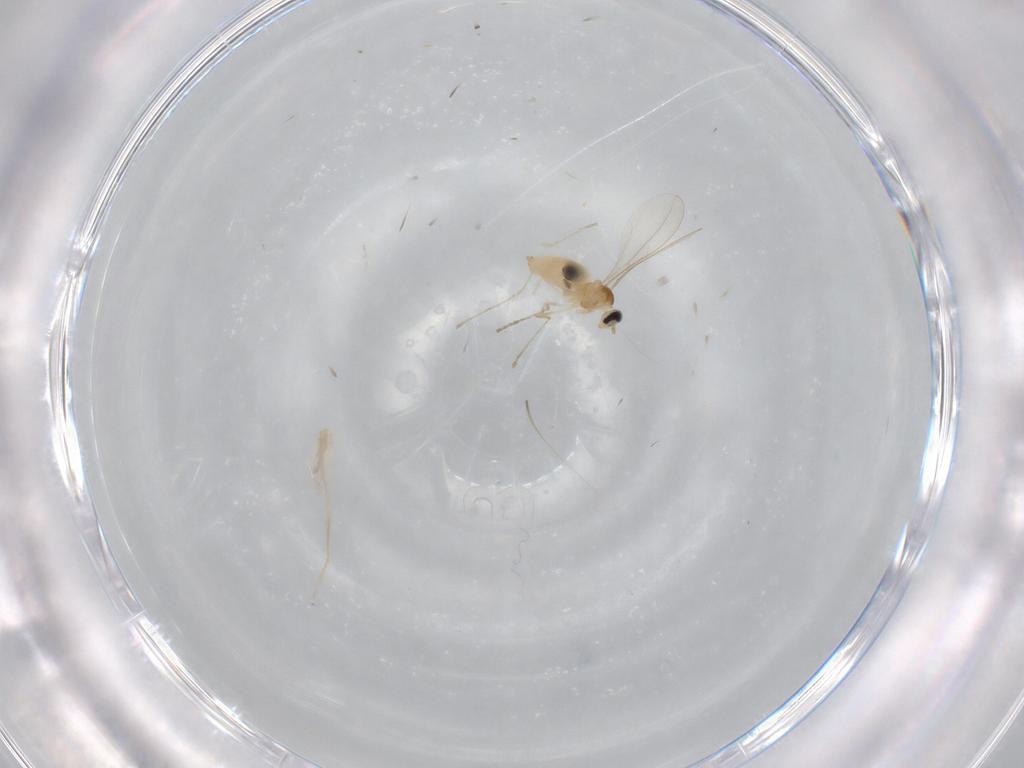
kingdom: Animalia
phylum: Arthropoda
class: Insecta
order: Diptera
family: Cecidomyiidae
